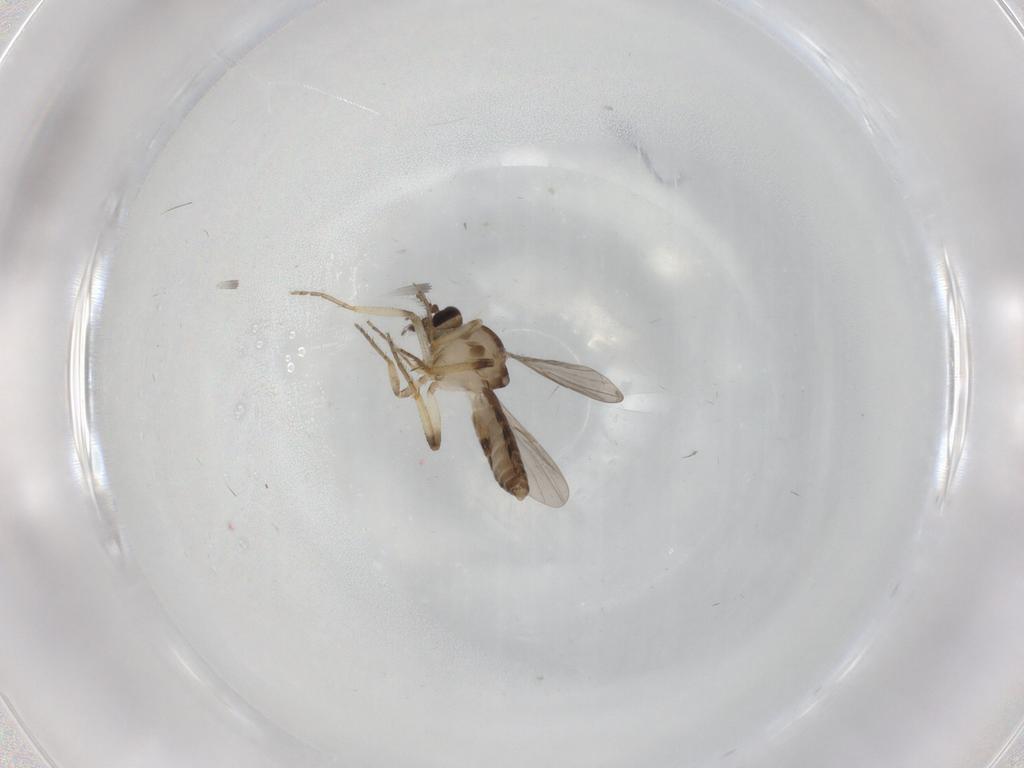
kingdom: Animalia
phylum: Arthropoda
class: Insecta
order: Diptera
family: Ceratopogonidae
